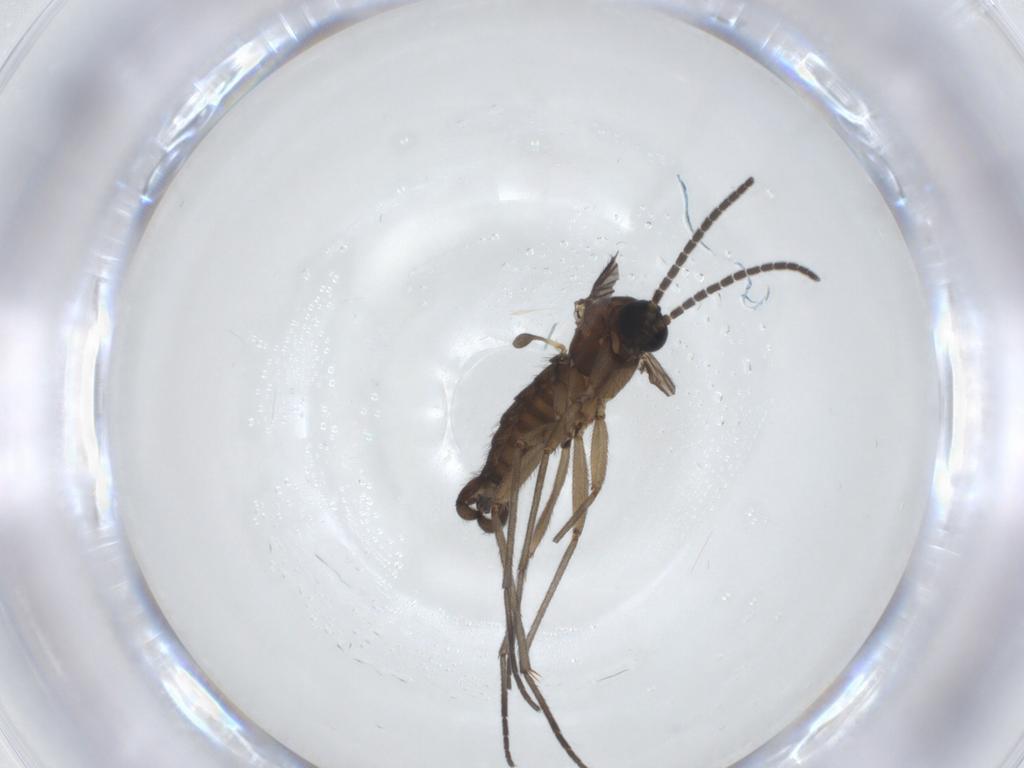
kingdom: Animalia
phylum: Arthropoda
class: Insecta
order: Diptera
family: Sciaridae
